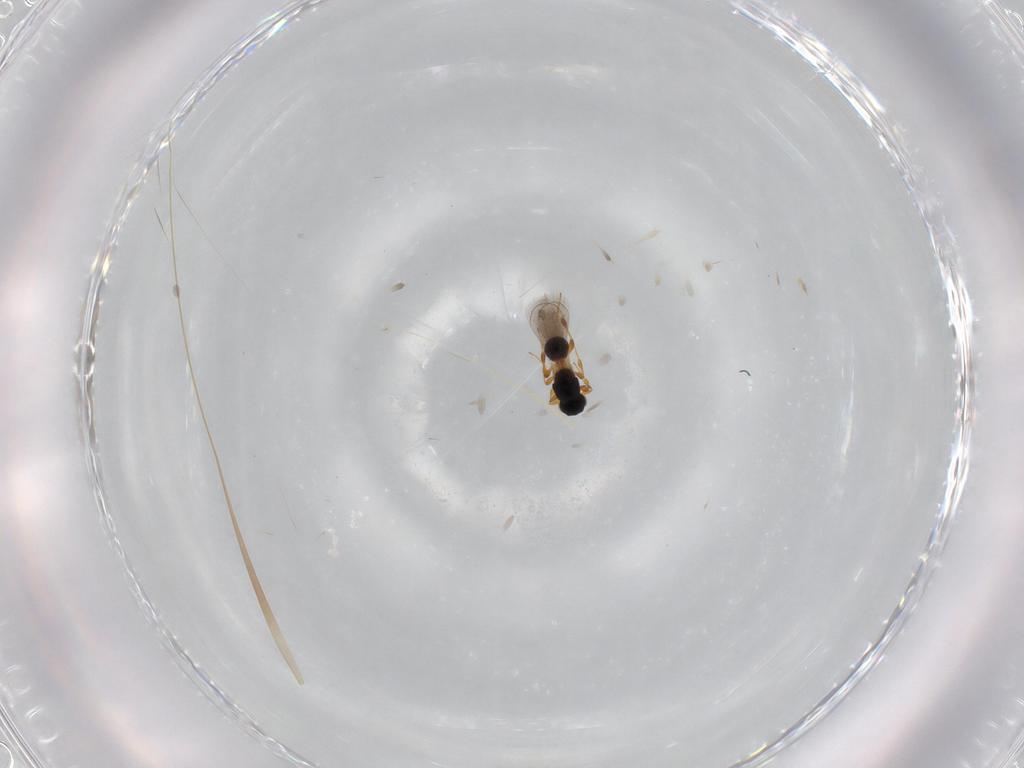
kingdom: Animalia
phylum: Arthropoda
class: Insecta
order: Hymenoptera
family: Platygastridae
